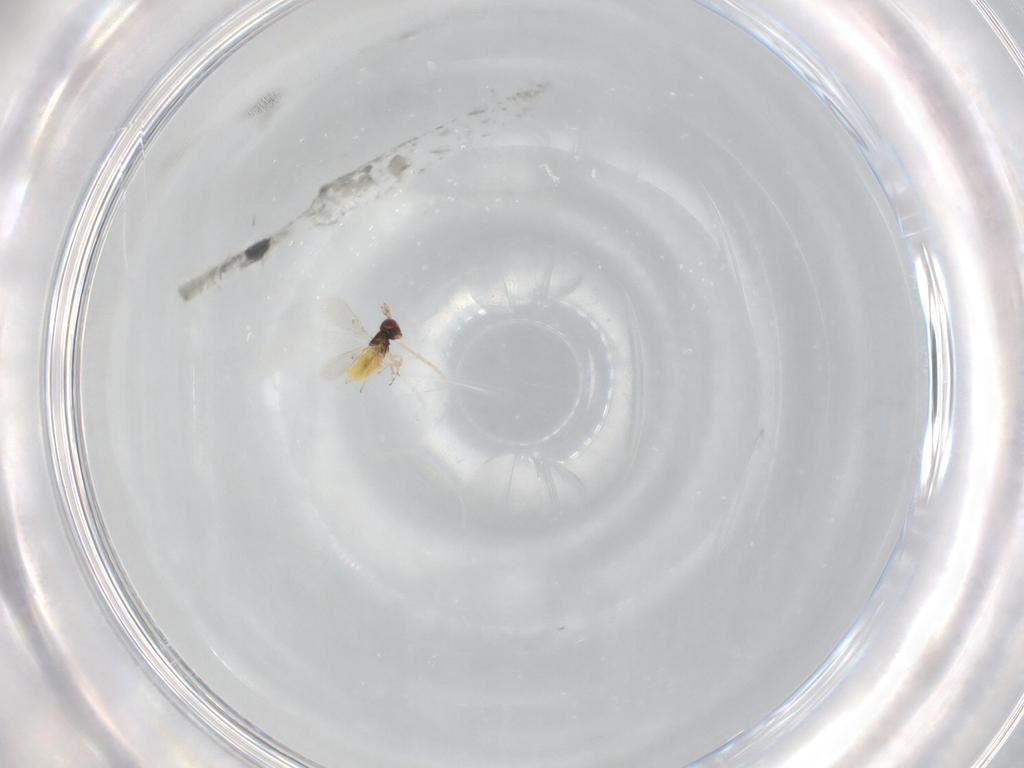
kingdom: Animalia
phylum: Arthropoda
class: Insecta
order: Hymenoptera
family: Trichogrammatidae
